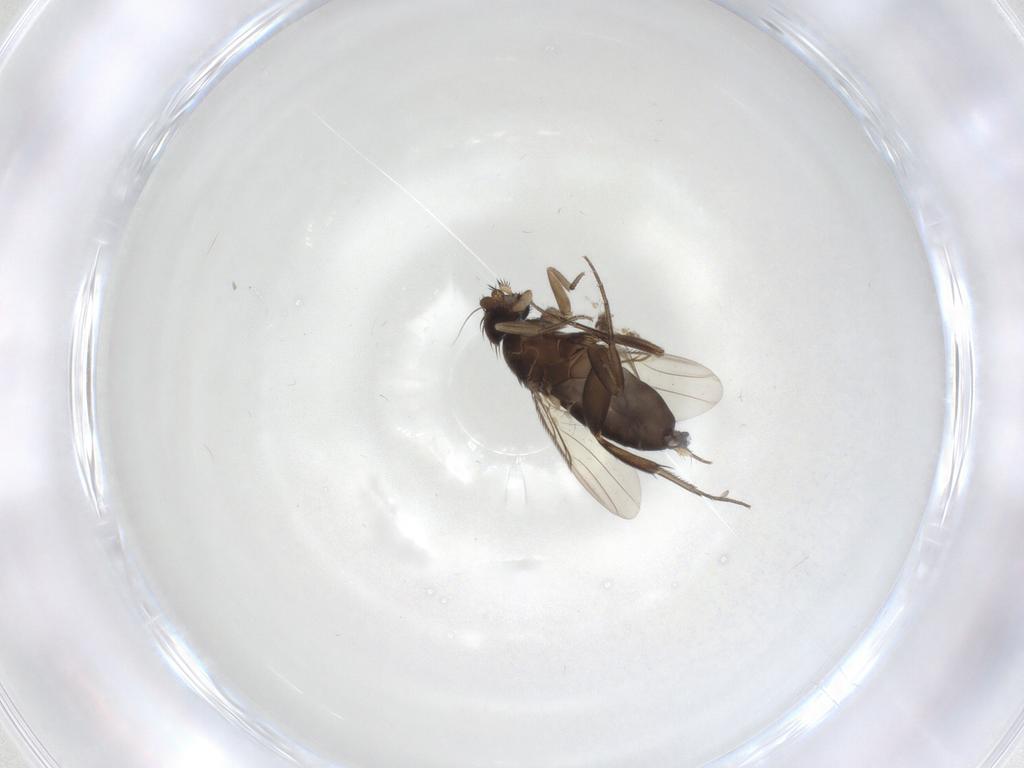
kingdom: Animalia
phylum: Arthropoda
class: Insecta
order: Diptera
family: Phoridae
